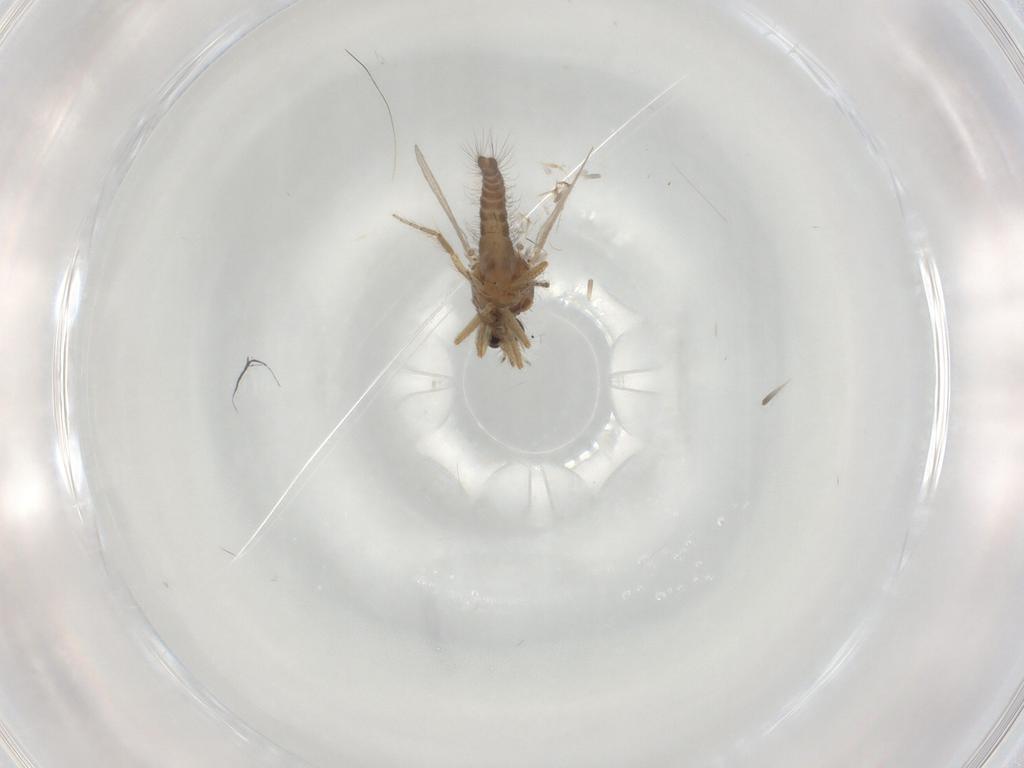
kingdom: Animalia
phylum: Arthropoda
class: Insecta
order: Diptera
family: Ceratopogonidae
